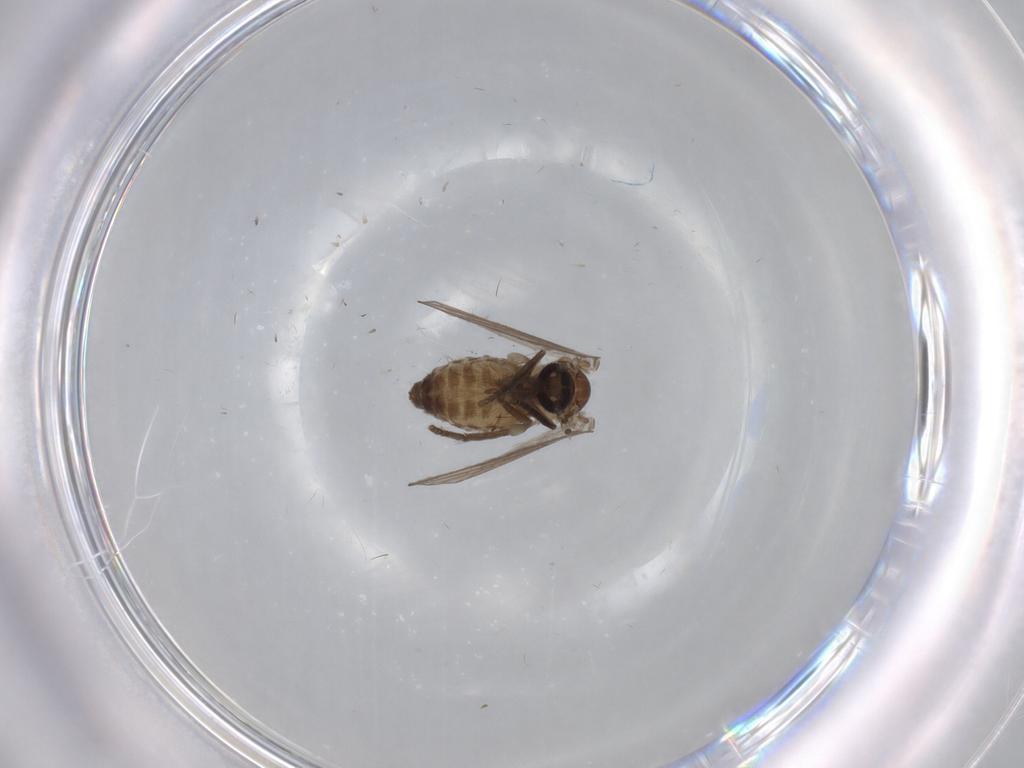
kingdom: Animalia
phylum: Arthropoda
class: Insecta
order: Diptera
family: Psychodidae
